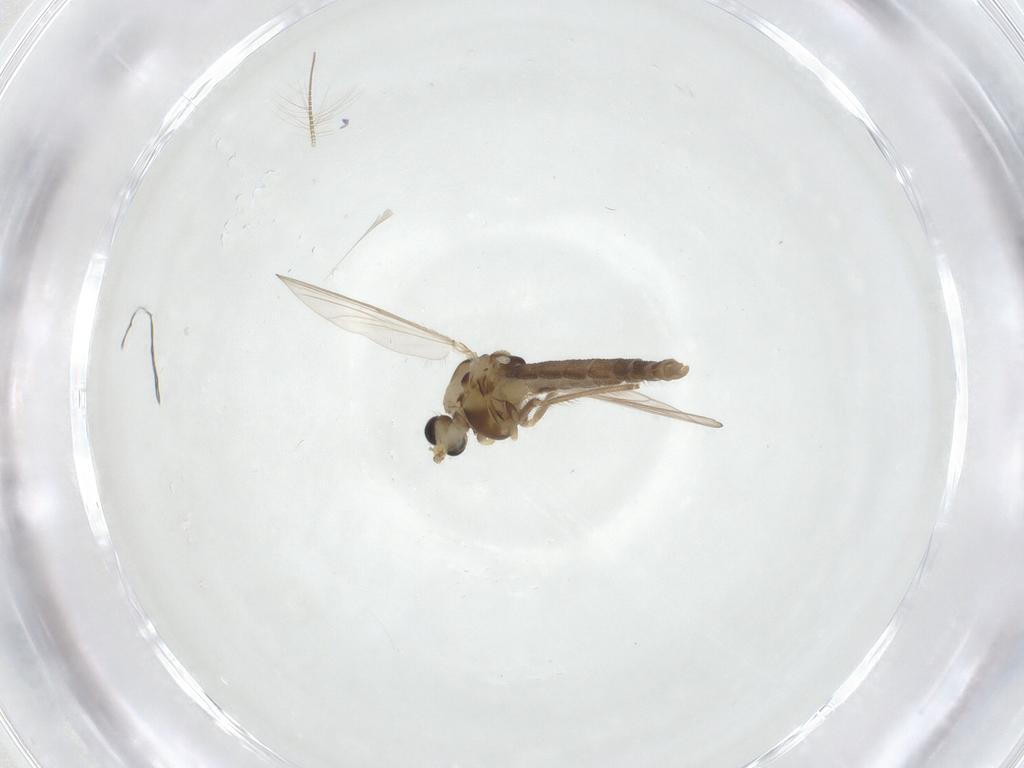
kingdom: Animalia
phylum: Arthropoda
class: Insecta
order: Diptera
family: Chironomidae
